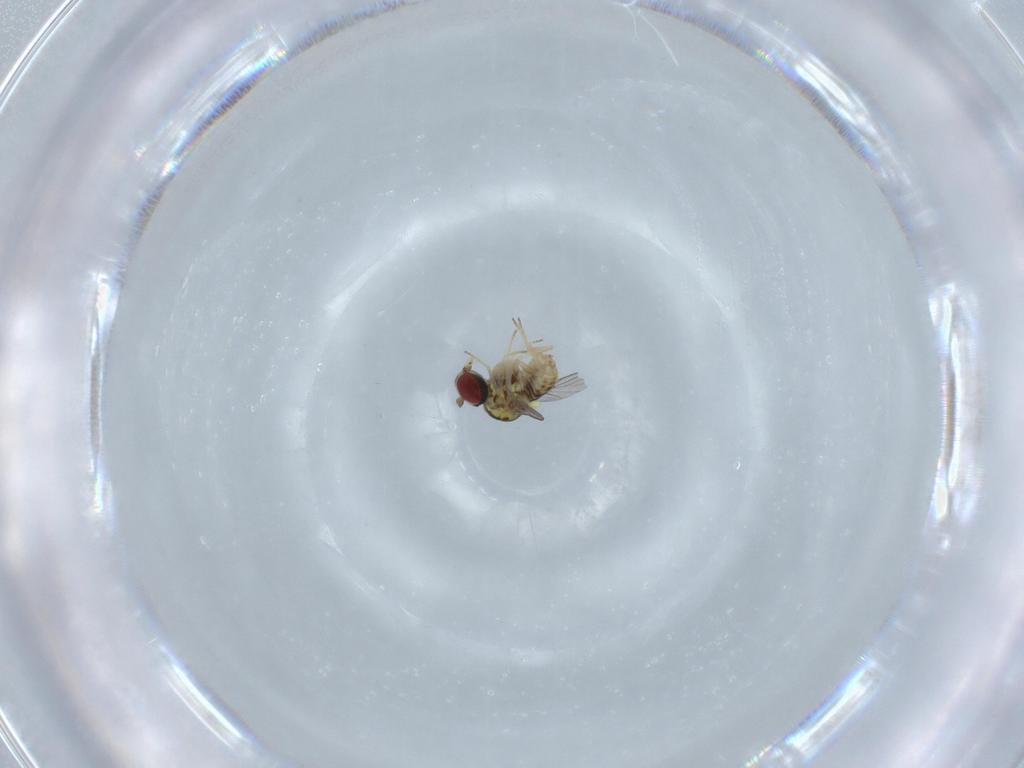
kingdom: Animalia
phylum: Arthropoda
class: Insecta
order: Diptera
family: Bombyliidae
